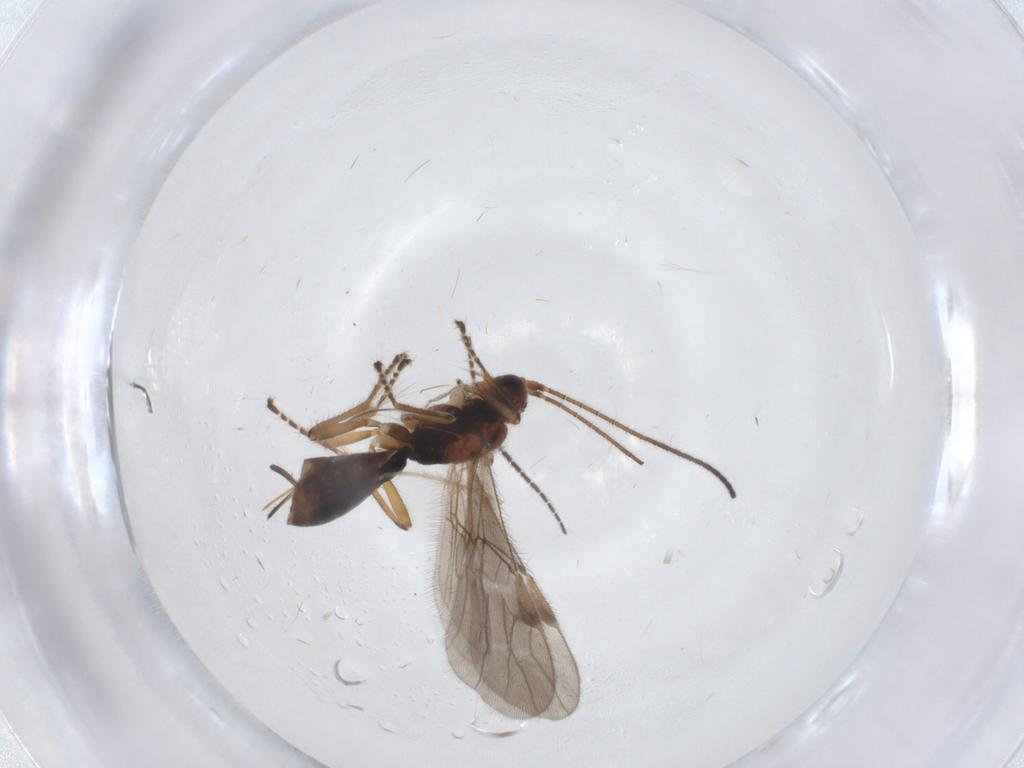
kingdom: Animalia
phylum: Arthropoda
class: Insecta
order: Hymenoptera
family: Braconidae
